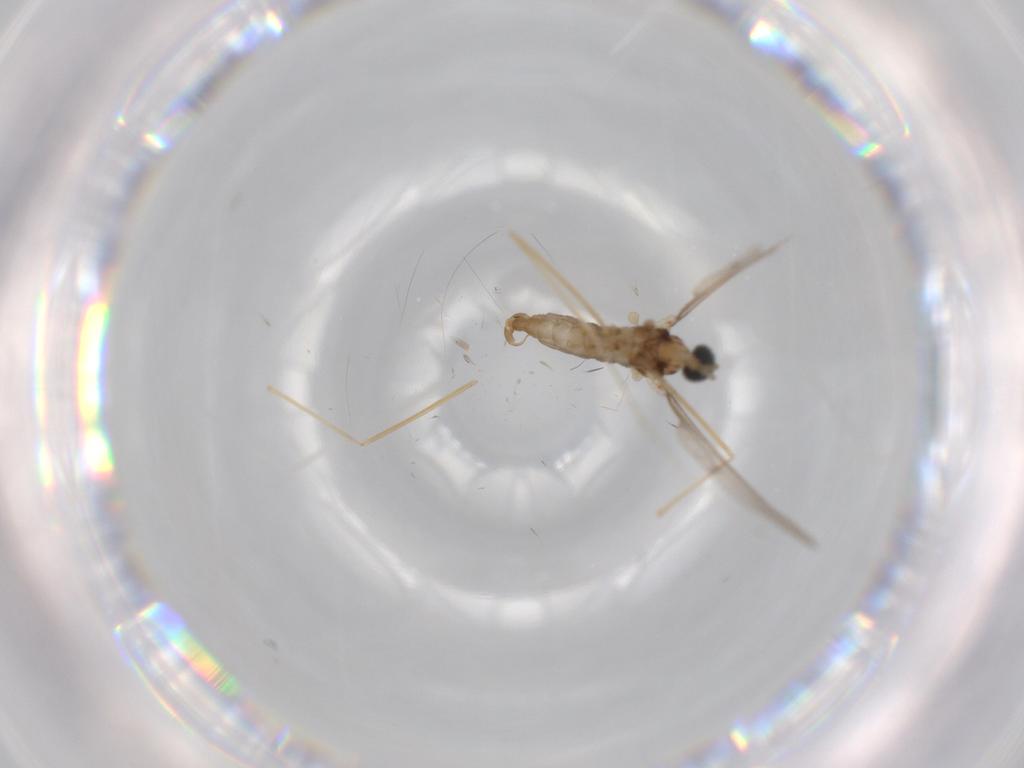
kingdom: Animalia
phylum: Arthropoda
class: Insecta
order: Diptera
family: Cecidomyiidae
